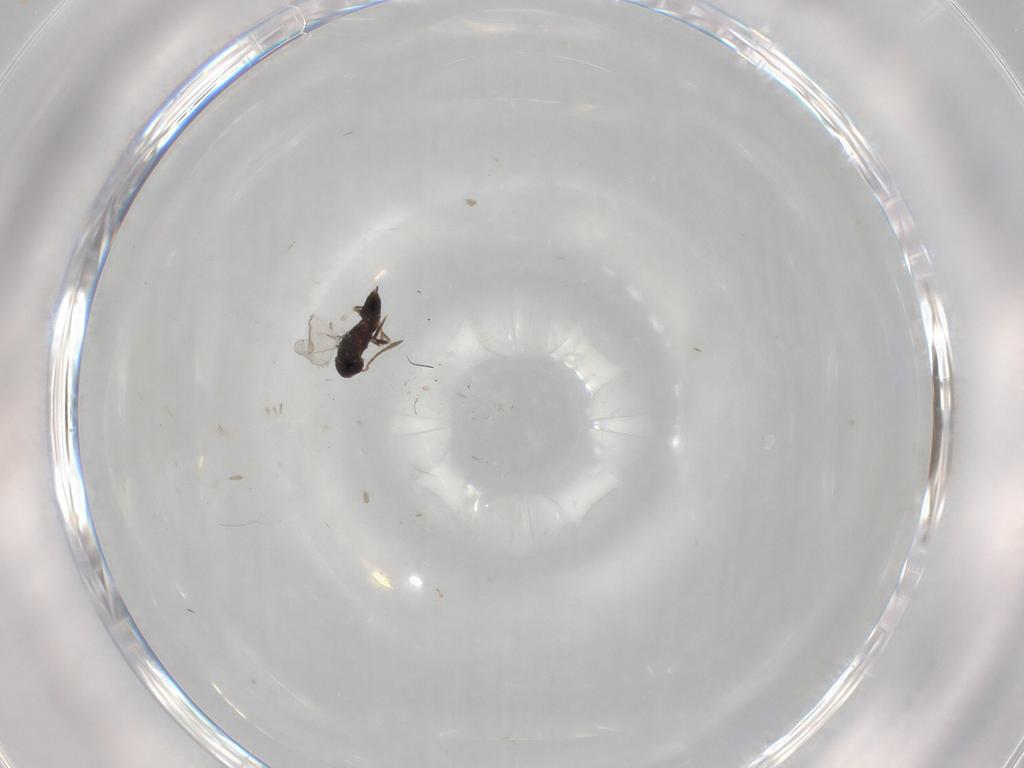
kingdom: Animalia
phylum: Arthropoda
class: Insecta
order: Hymenoptera
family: Mymaridae
